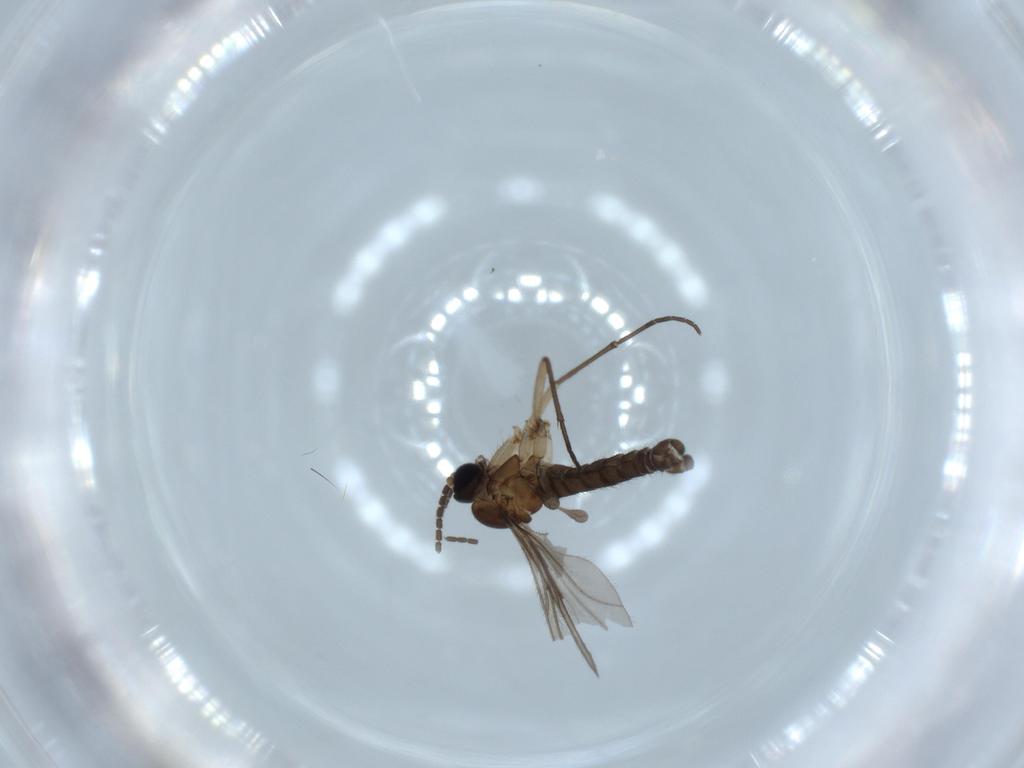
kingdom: Animalia
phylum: Arthropoda
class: Insecta
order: Diptera
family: Sciaridae
